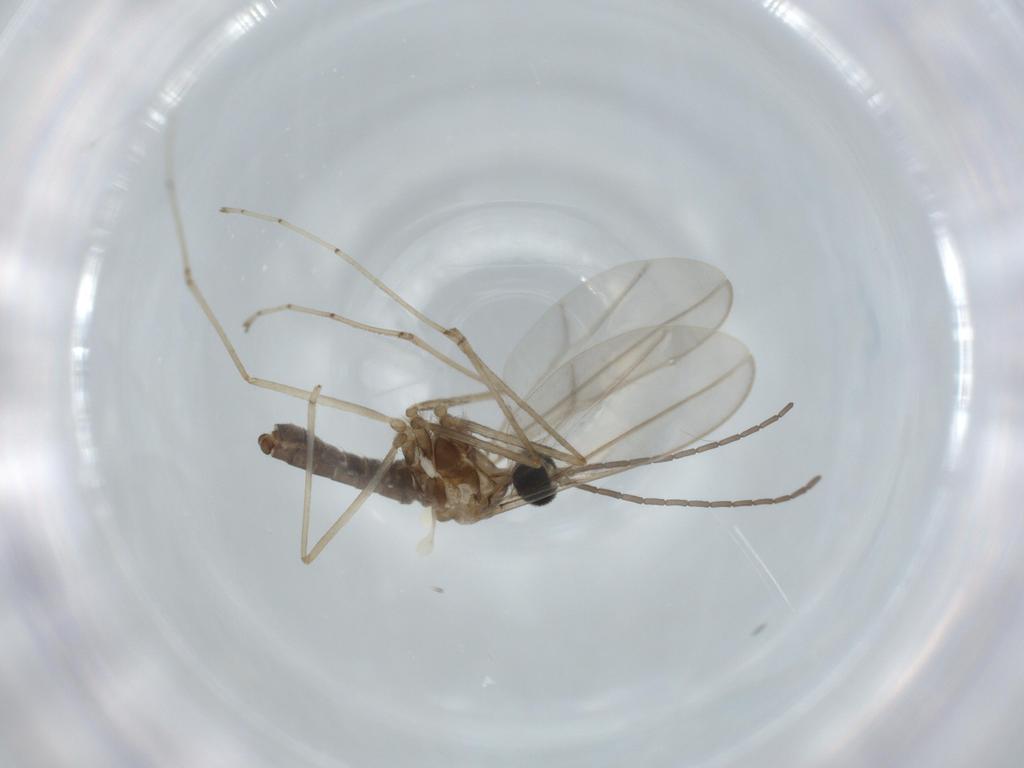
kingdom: Animalia
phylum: Arthropoda
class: Insecta
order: Diptera
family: Cecidomyiidae
